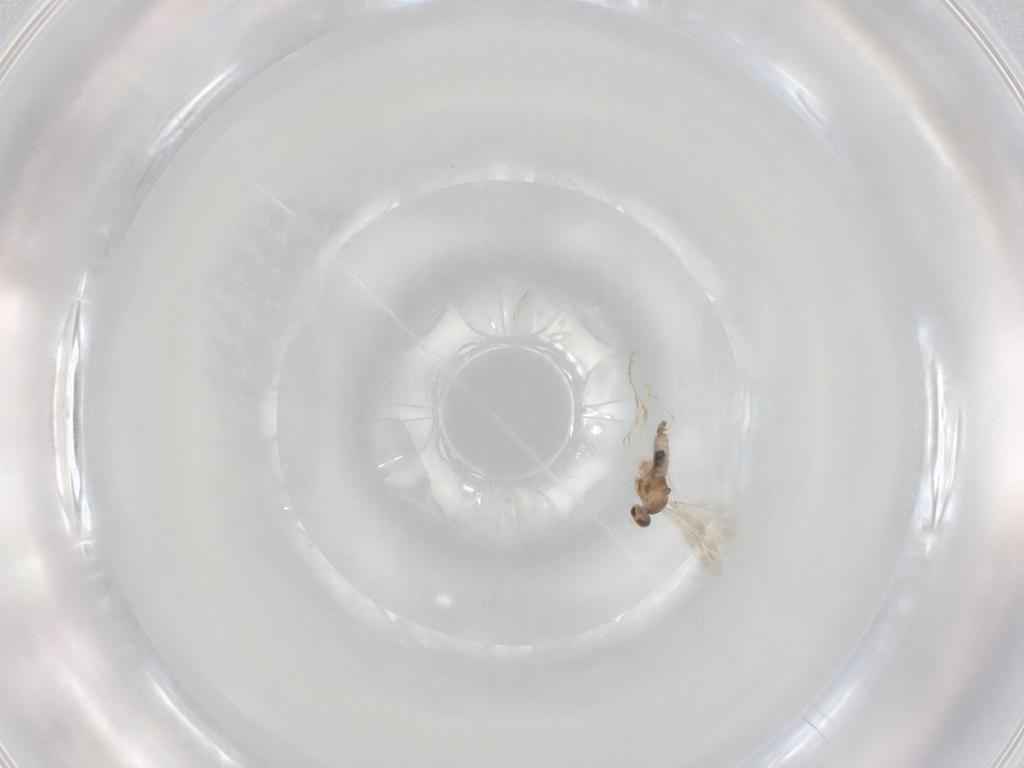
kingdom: Animalia
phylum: Arthropoda
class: Insecta
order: Diptera
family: Cecidomyiidae
